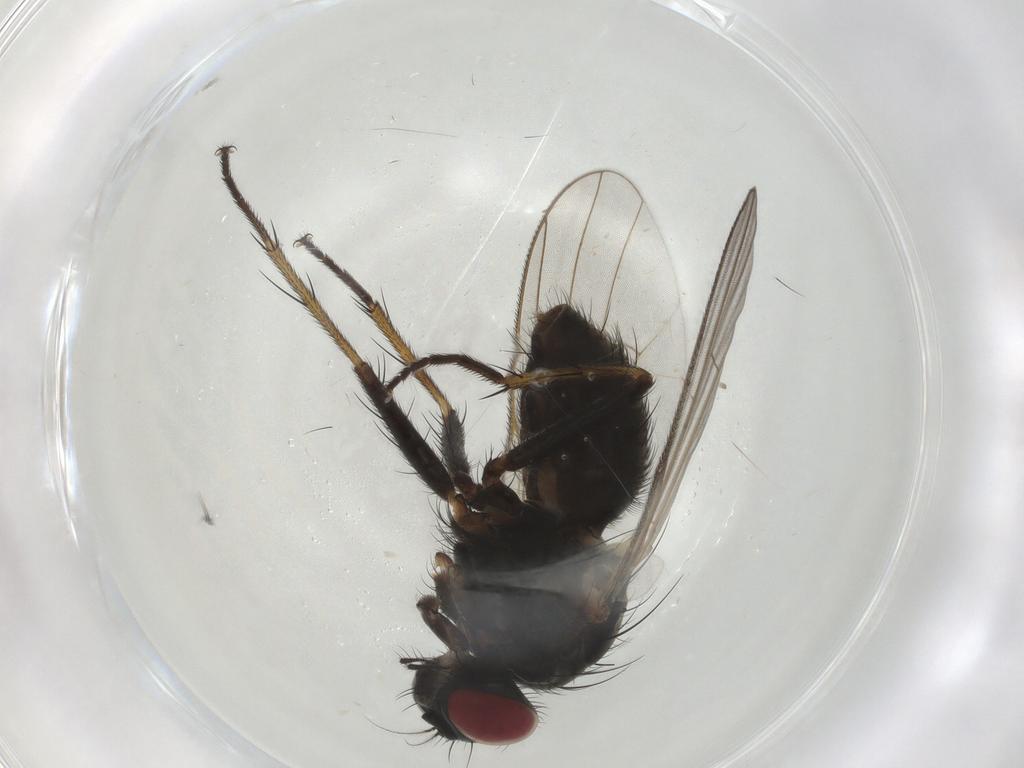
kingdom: Animalia
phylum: Arthropoda
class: Insecta
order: Diptera
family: Muscidae
